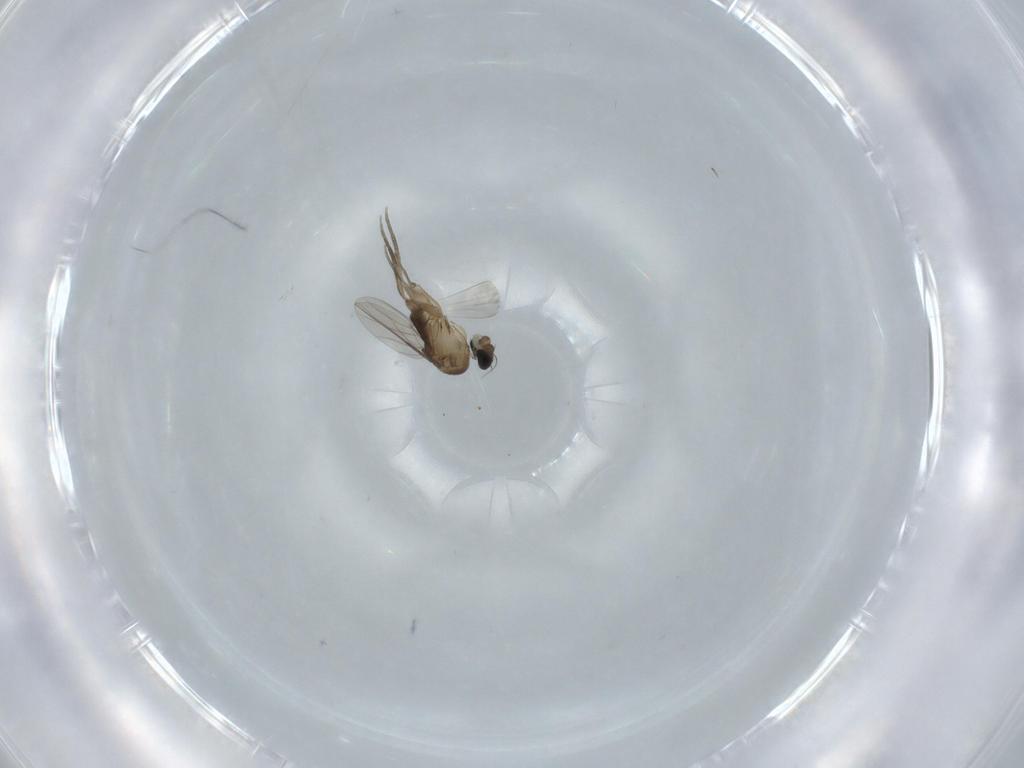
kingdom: Animalia
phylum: Arthropoda
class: Insecta
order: Diptera
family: Phoridae
